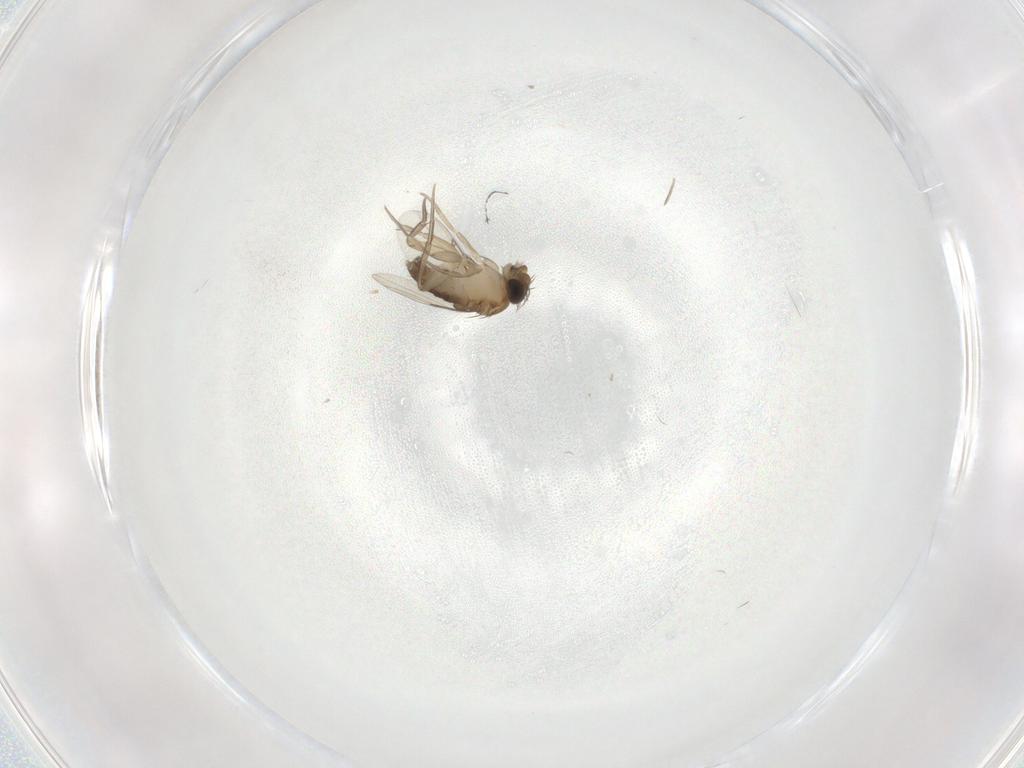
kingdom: Animalia
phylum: Arthropoda
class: Insecta
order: Diptera
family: Phoridae
